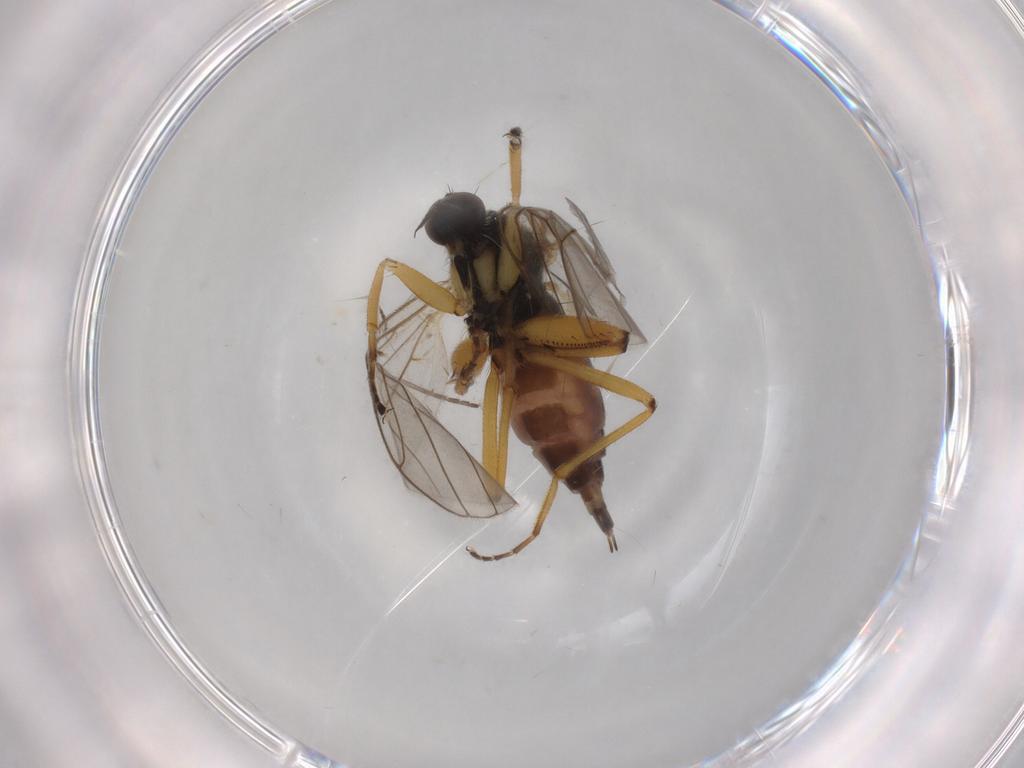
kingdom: Animalia
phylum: Arthropoda
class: Insecta
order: Diptera
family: Hybotidae
